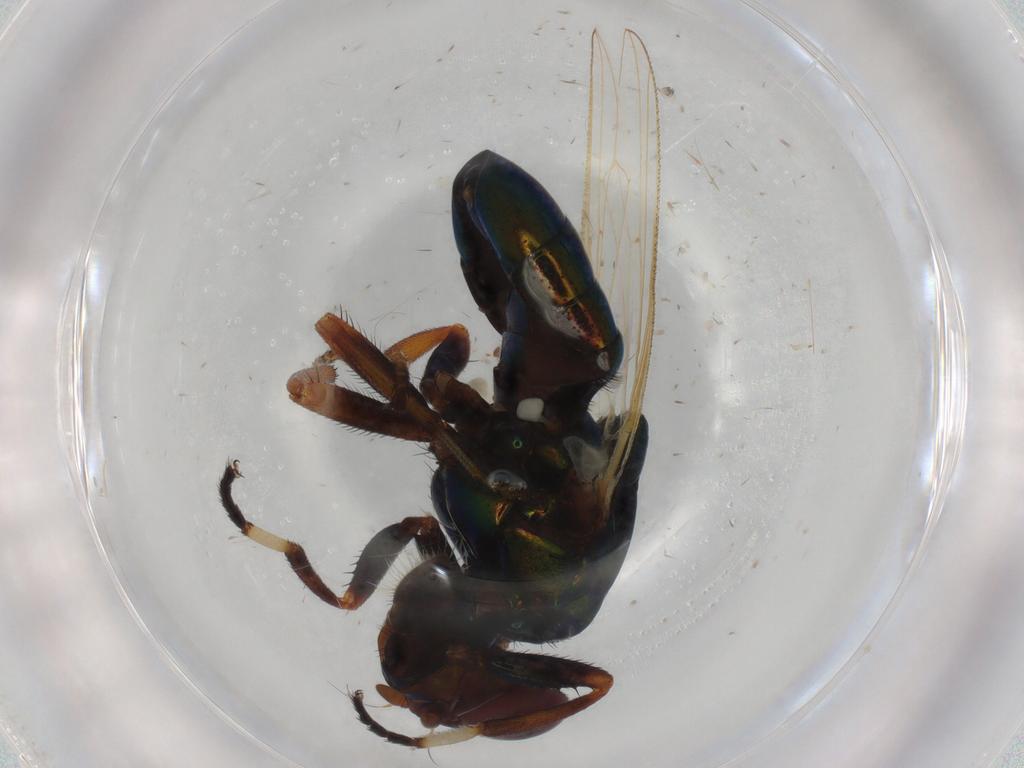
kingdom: Animalia
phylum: Arthropoda
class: Insecta
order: Diptera
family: Ulidiidae
